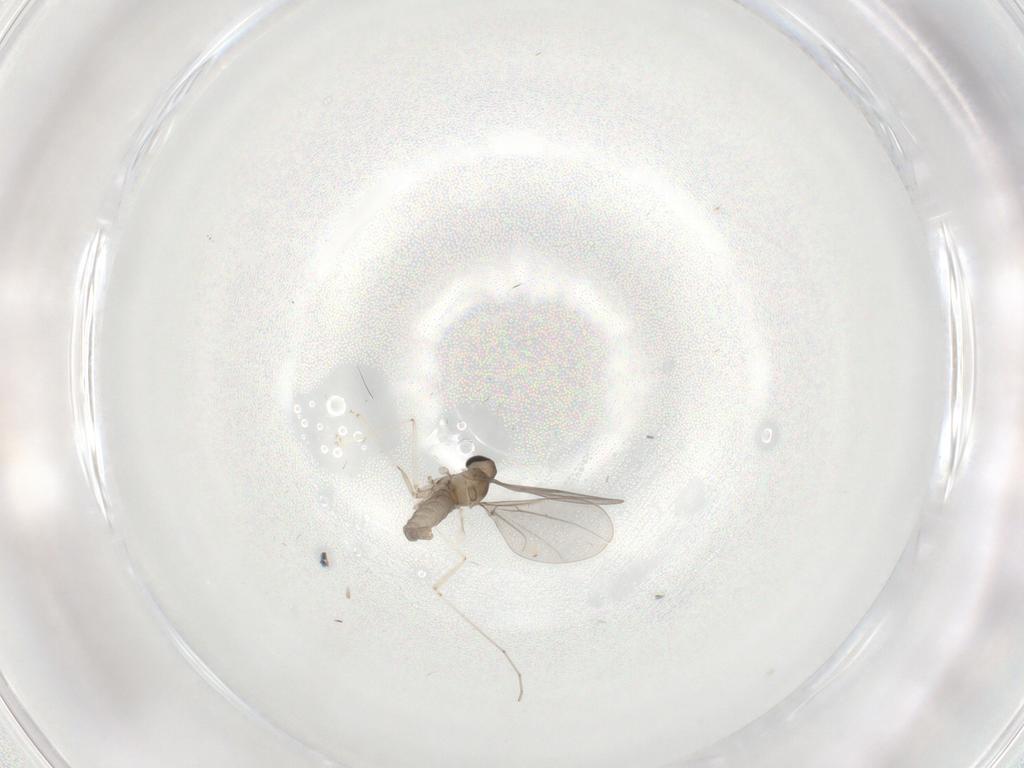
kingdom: Animalia
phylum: Arthropoda
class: Insecta
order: Diptera
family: Cecidomyiidae
